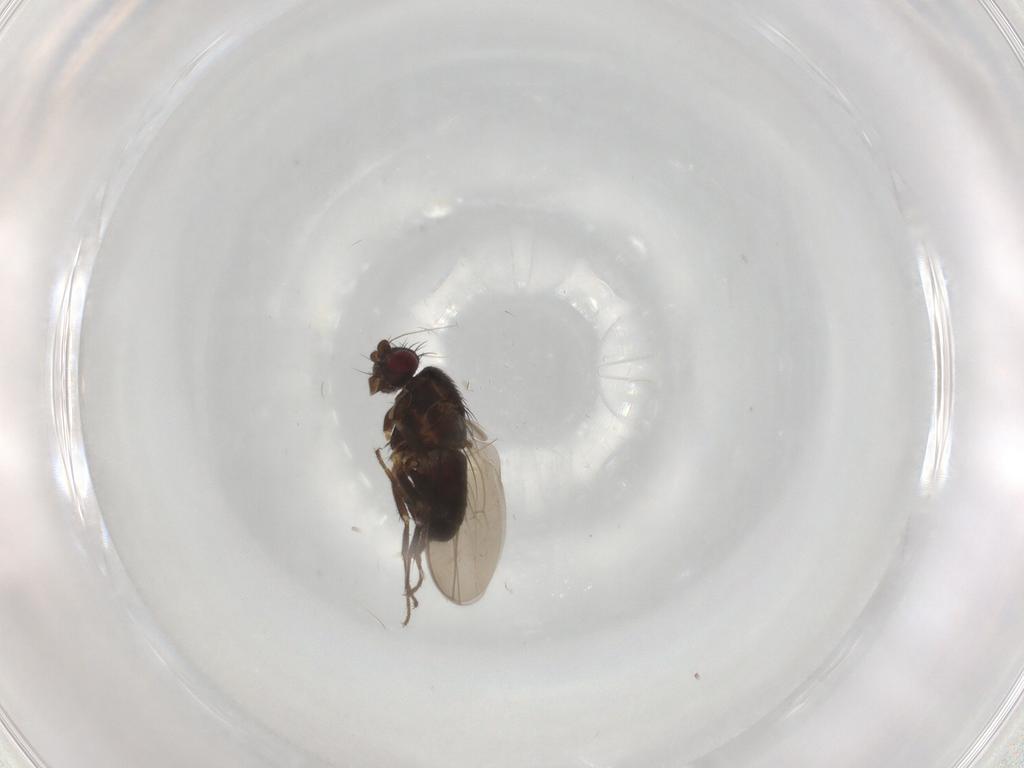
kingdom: Animalia
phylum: Arthropoda
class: Insecta
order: Diptera
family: Sphaeroceridae
